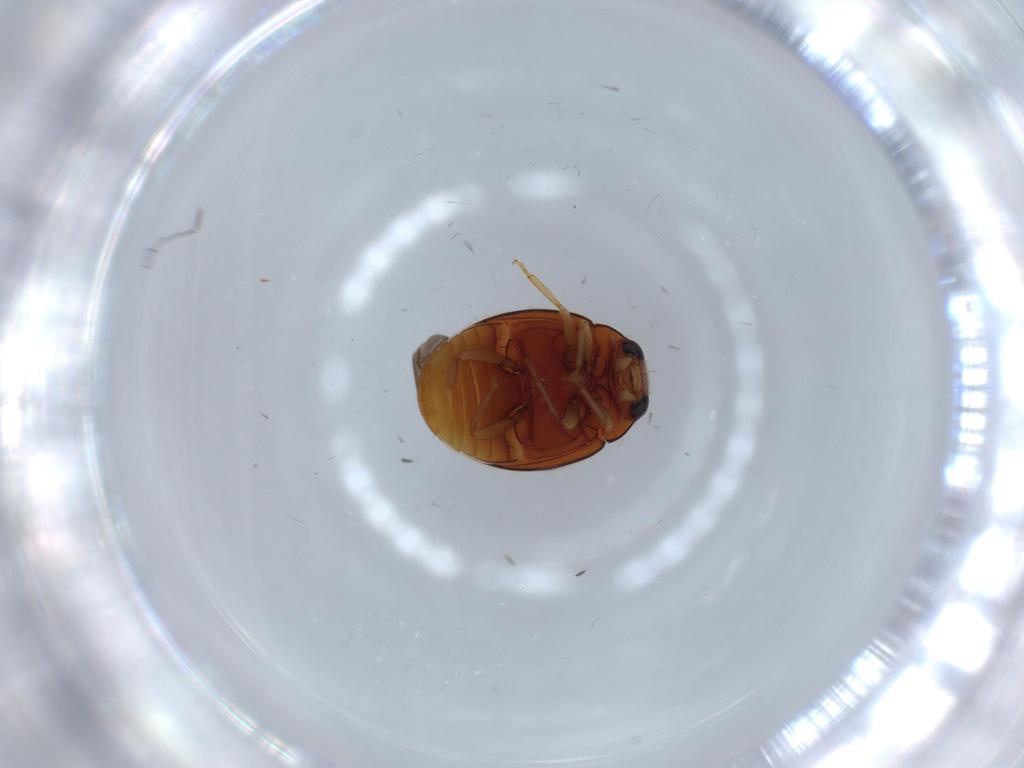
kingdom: Animalia
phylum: Arthropoda
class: Insecta
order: Coleoptera
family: Coccinellidae
